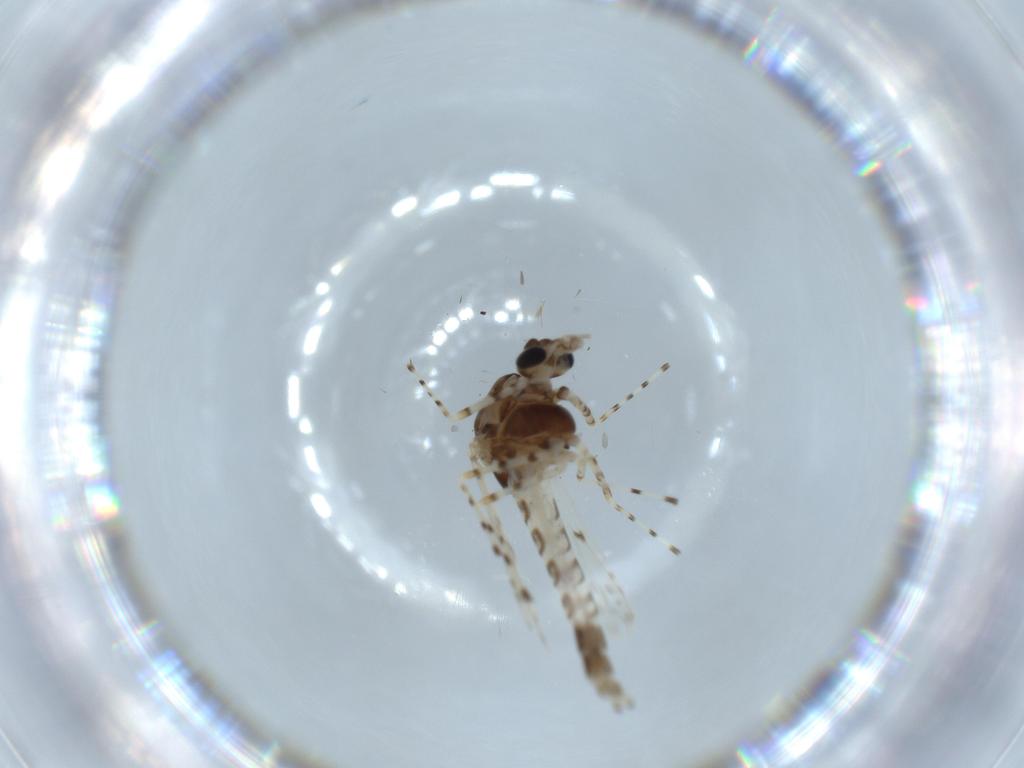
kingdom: Animalia
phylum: Arthropoda
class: Insecta
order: Diptera
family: Chironomidae
